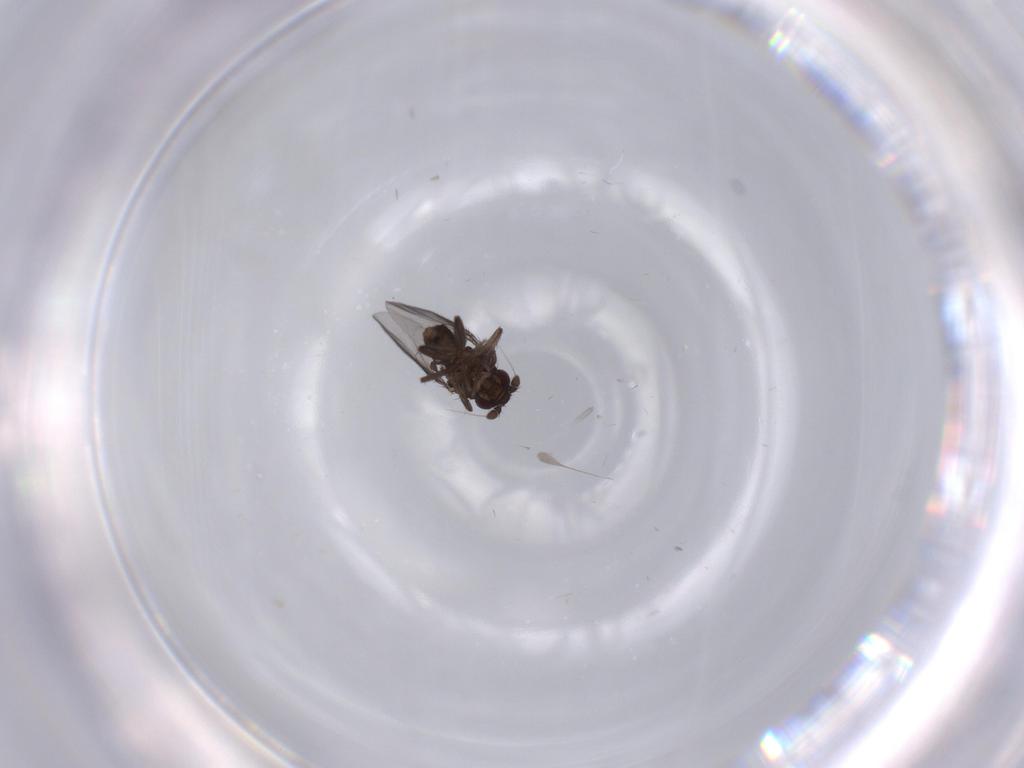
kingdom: Animalia
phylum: Arthropoda
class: Insecta
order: Diptera
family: Sphaeroceridae
